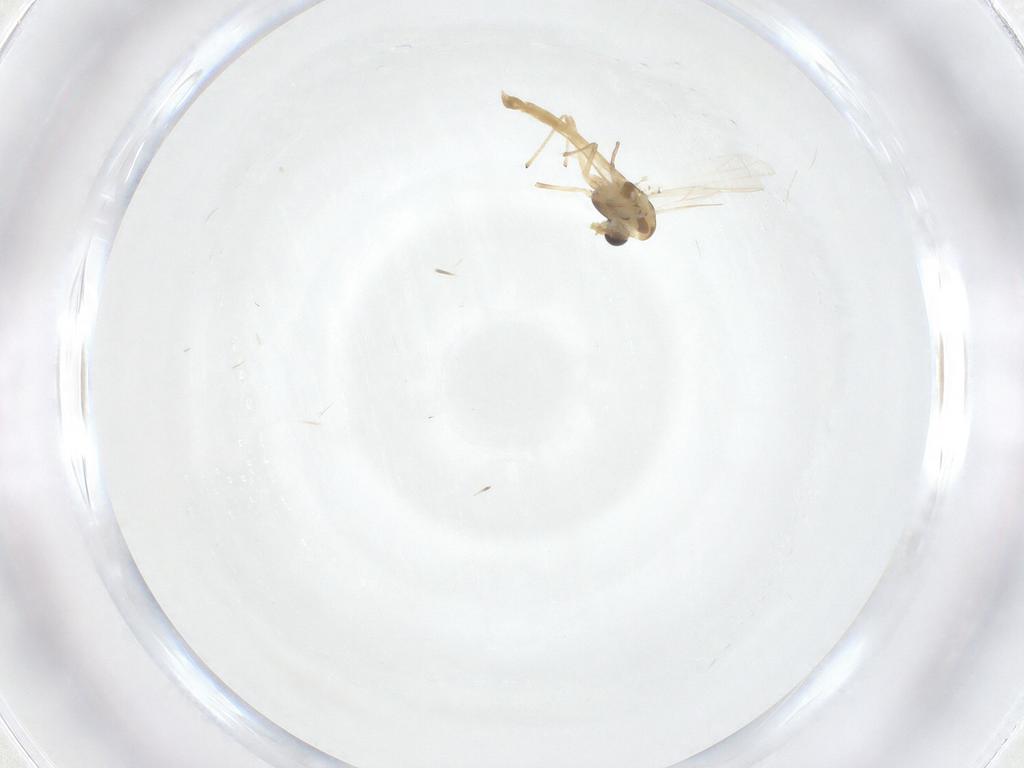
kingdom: Animalia
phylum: Arthropoda
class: Insecta
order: Diptera
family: Chironomidae
